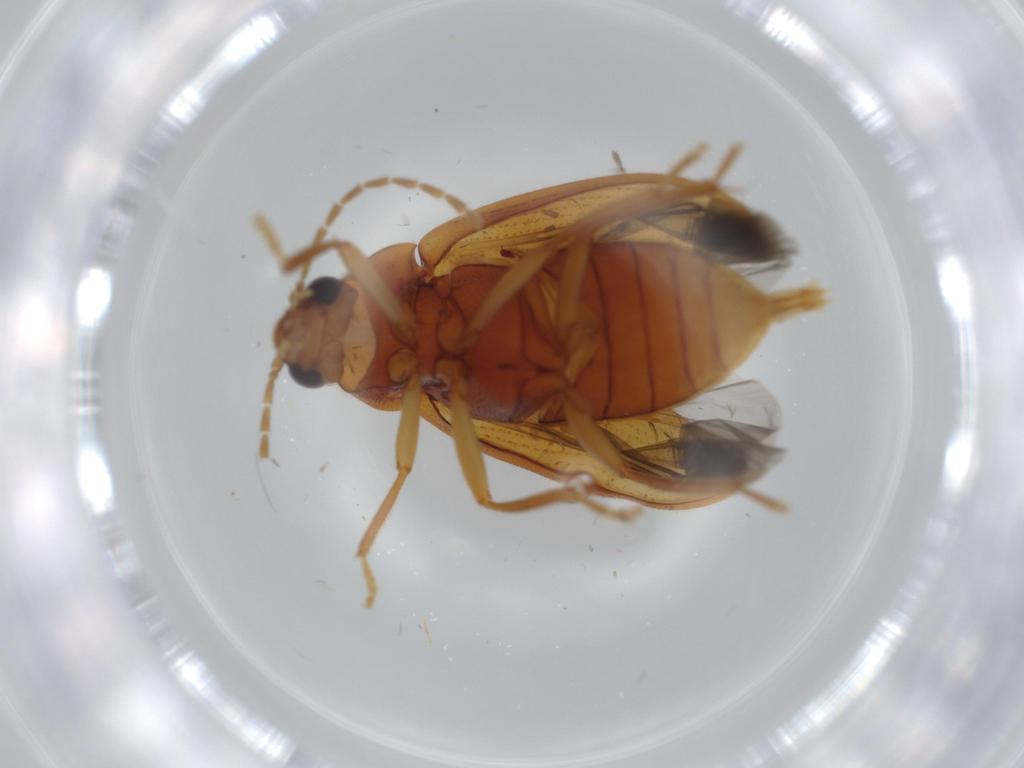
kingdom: Animalia
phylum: Arthropoda
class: Insecta
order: Coleoptera
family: Ptilodactylidae
